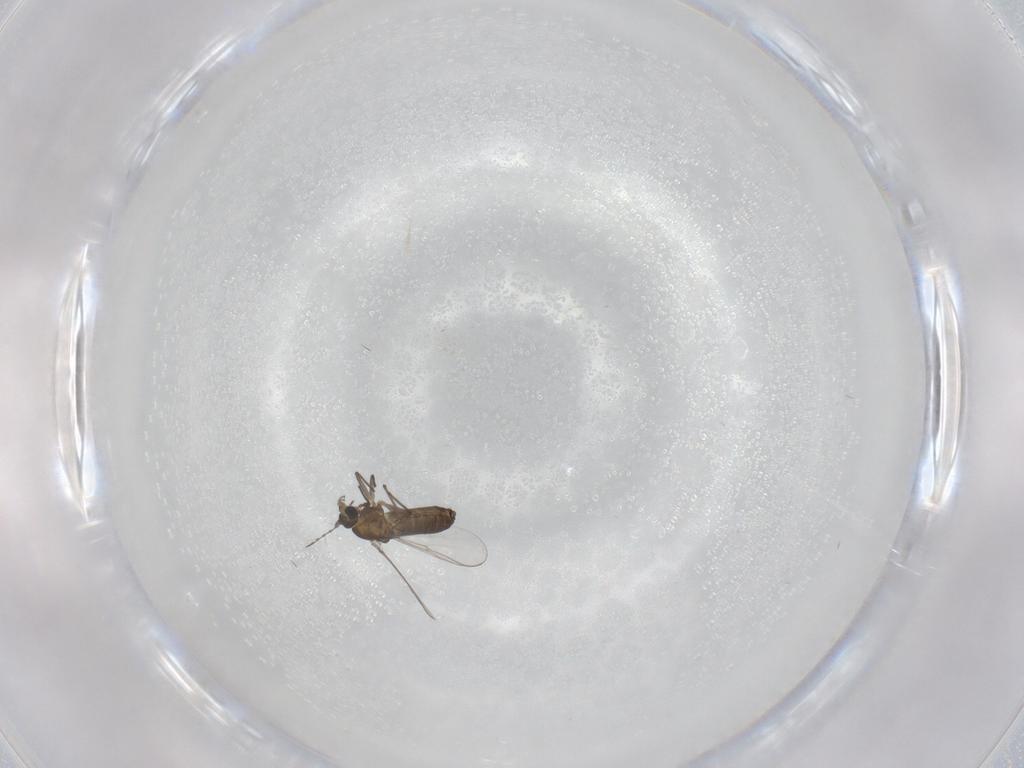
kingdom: Animalia
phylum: Arthropoda
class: Insecta
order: Diptera
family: Chironomidae
